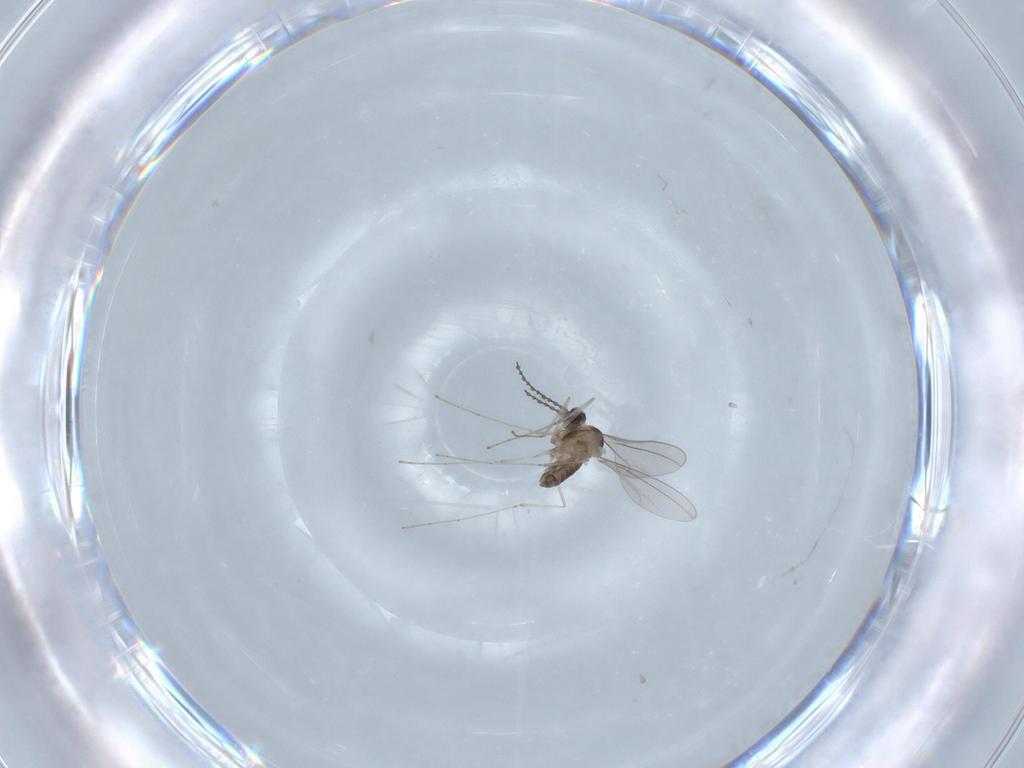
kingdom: Animalia
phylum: Arthropoda
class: Insecta
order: Diptera
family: Cecidomyiidae
